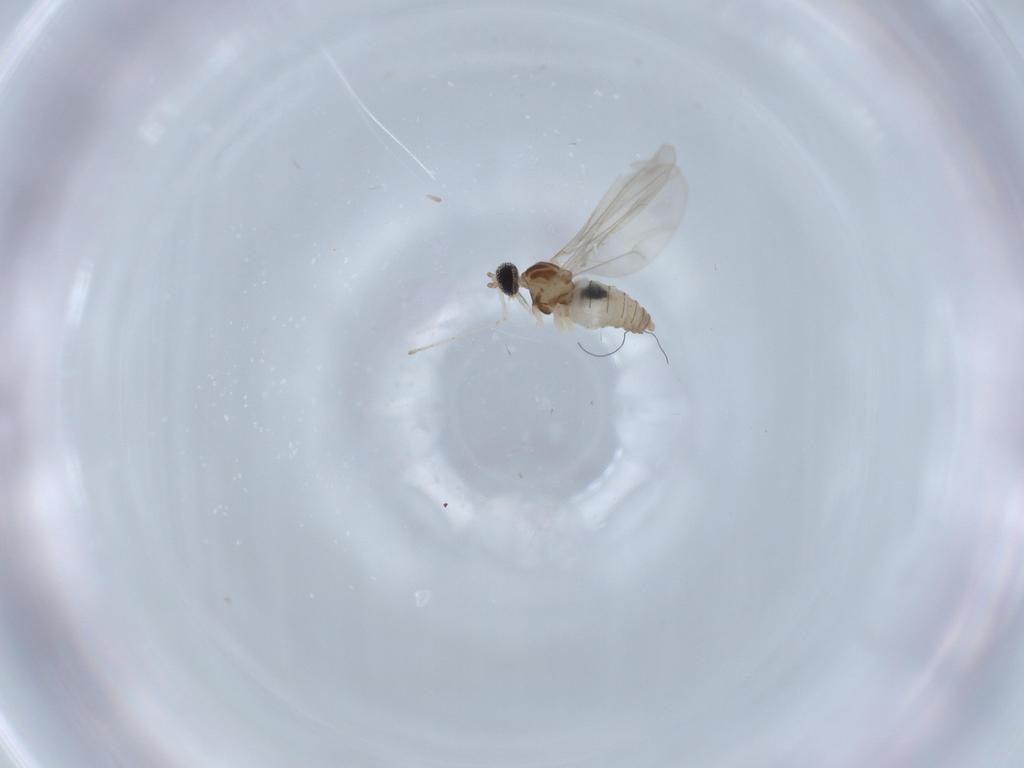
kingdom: Animalia
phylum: Arthropoda
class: Insecta
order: Diptera
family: Cecidomyiidae
